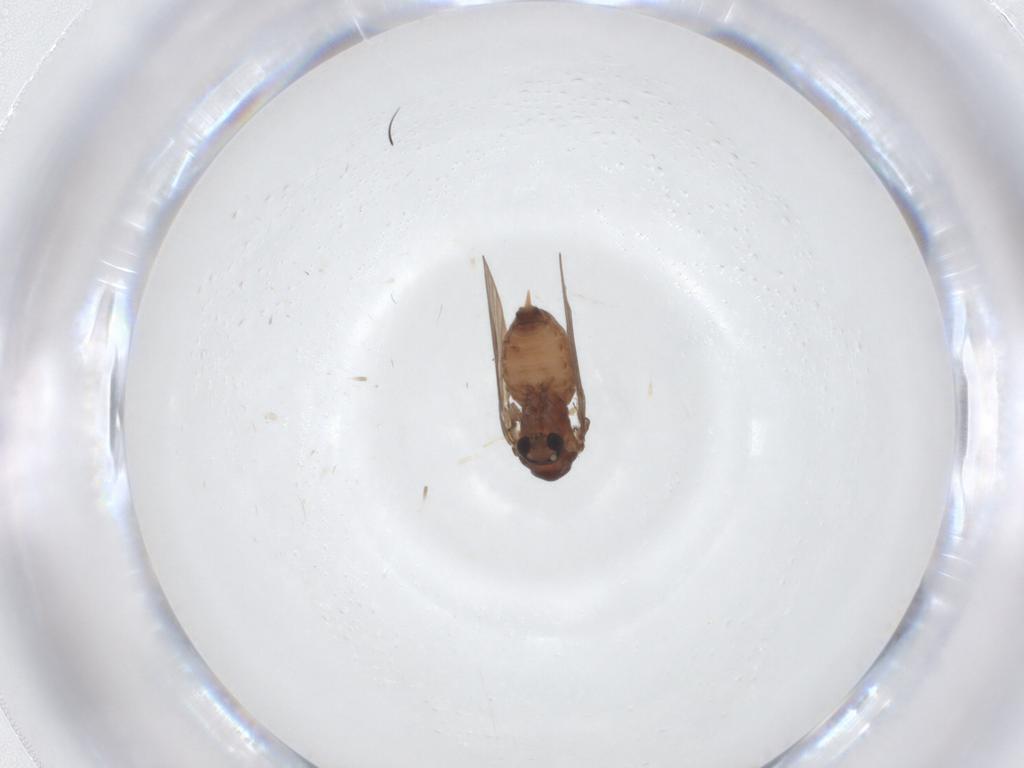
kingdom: Animalia
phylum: Arthropoda
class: Insecta
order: Diptera
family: Psychodidae
